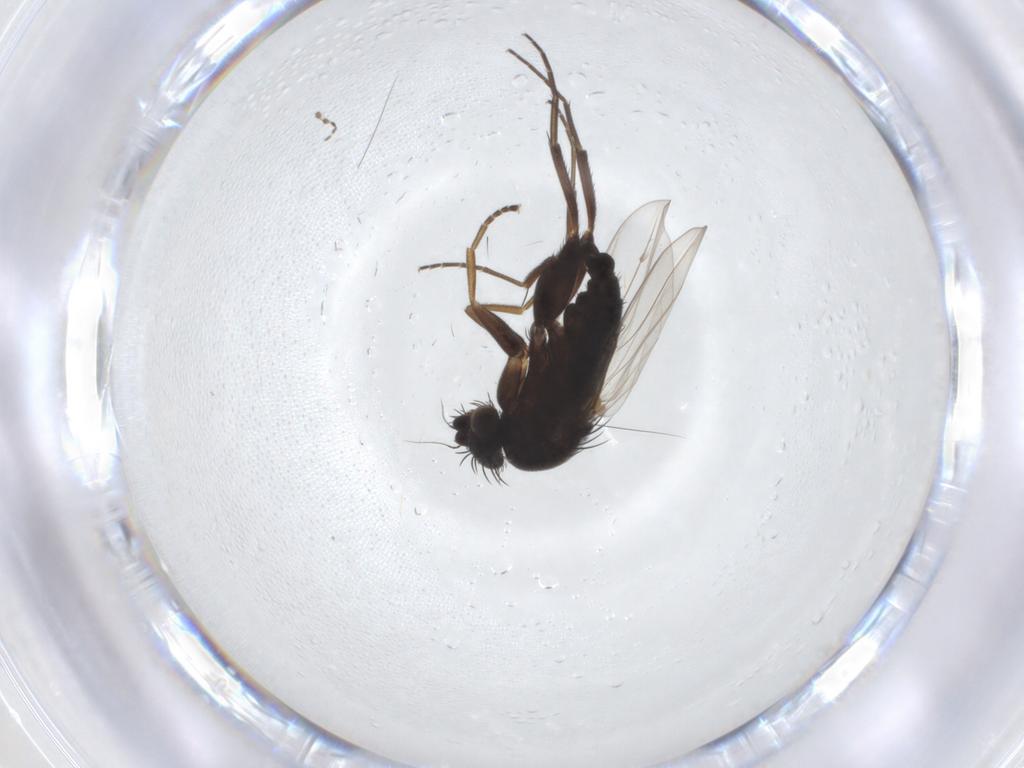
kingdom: Animalia
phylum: Arthropoda
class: Insecta
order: Diptera
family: Phoridae
